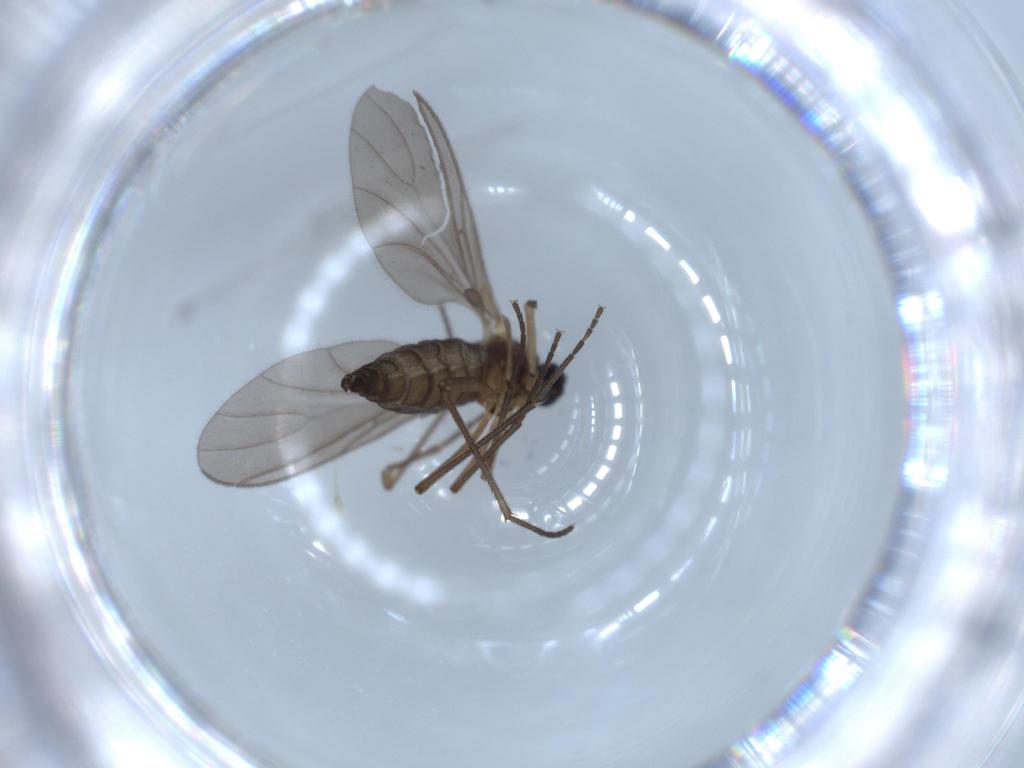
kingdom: Animalia
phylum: Arthropoda
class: Insecta
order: Diptera
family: Sciaridae
